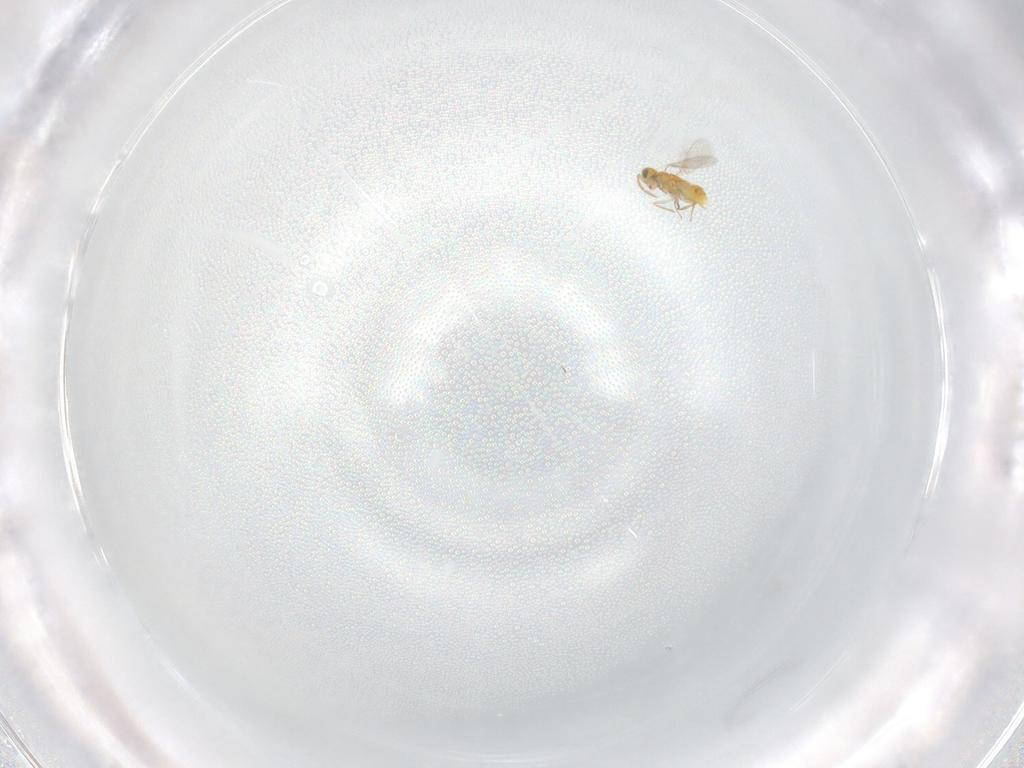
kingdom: Animalia
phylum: Arthropoda
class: Insecta
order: Hymenoptera
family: Aphelinidae
